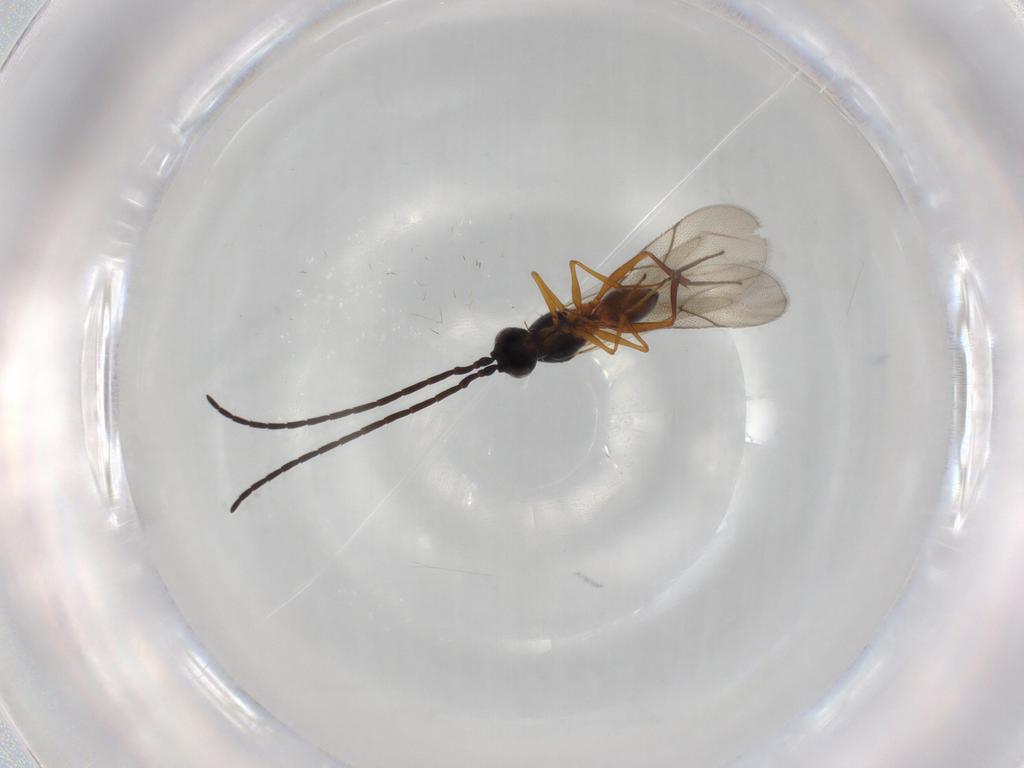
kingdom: Animalia
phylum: Arthropoda
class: Insecta
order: Hymenoptera
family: Figitidae
